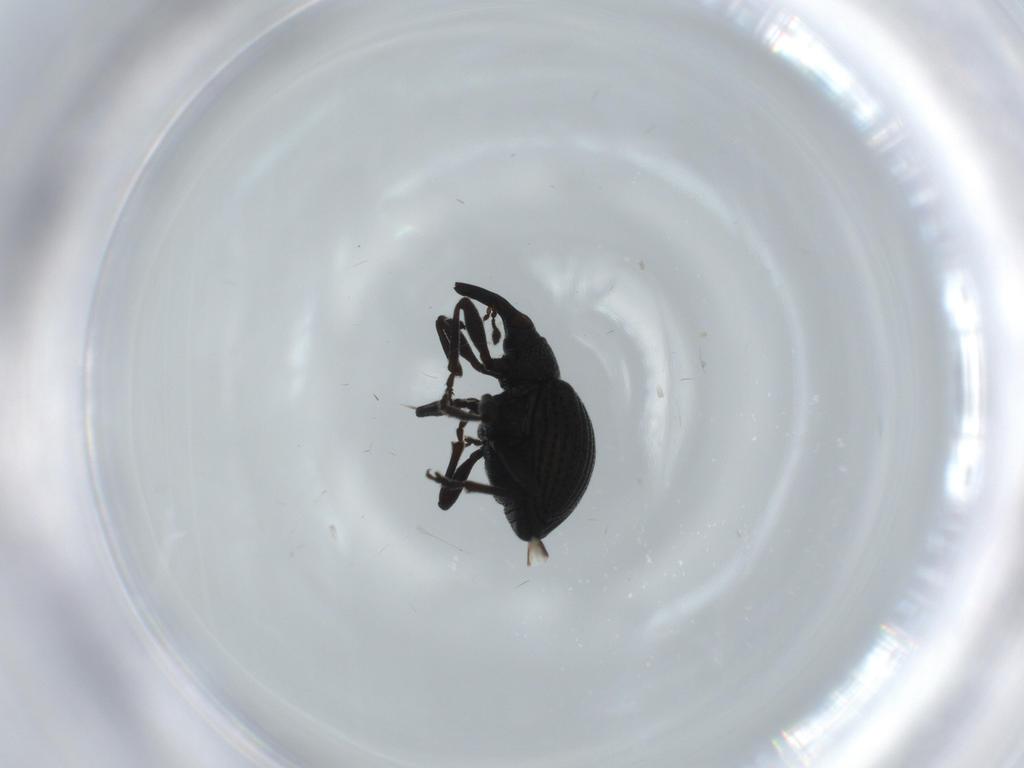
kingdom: Animalia
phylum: Arthropoda
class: Insecta
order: Coleoptera
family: Brentidae
